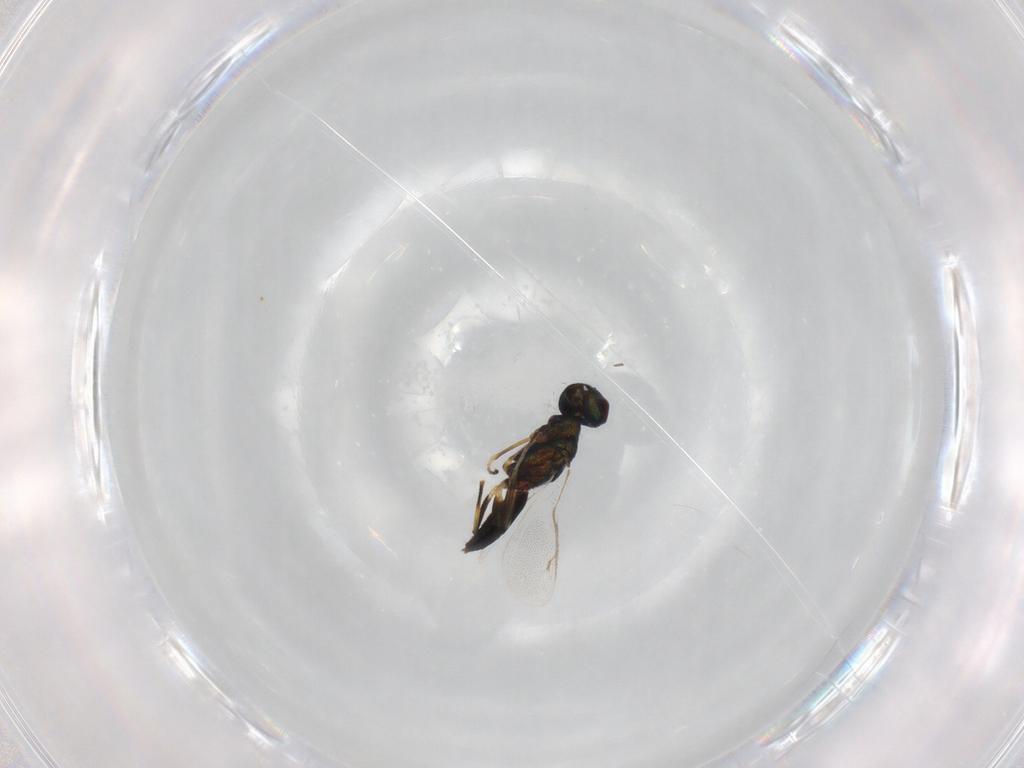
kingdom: Animalia
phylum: Arthropoda
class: Insecta
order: Hymenoptera
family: Eupelmidae
